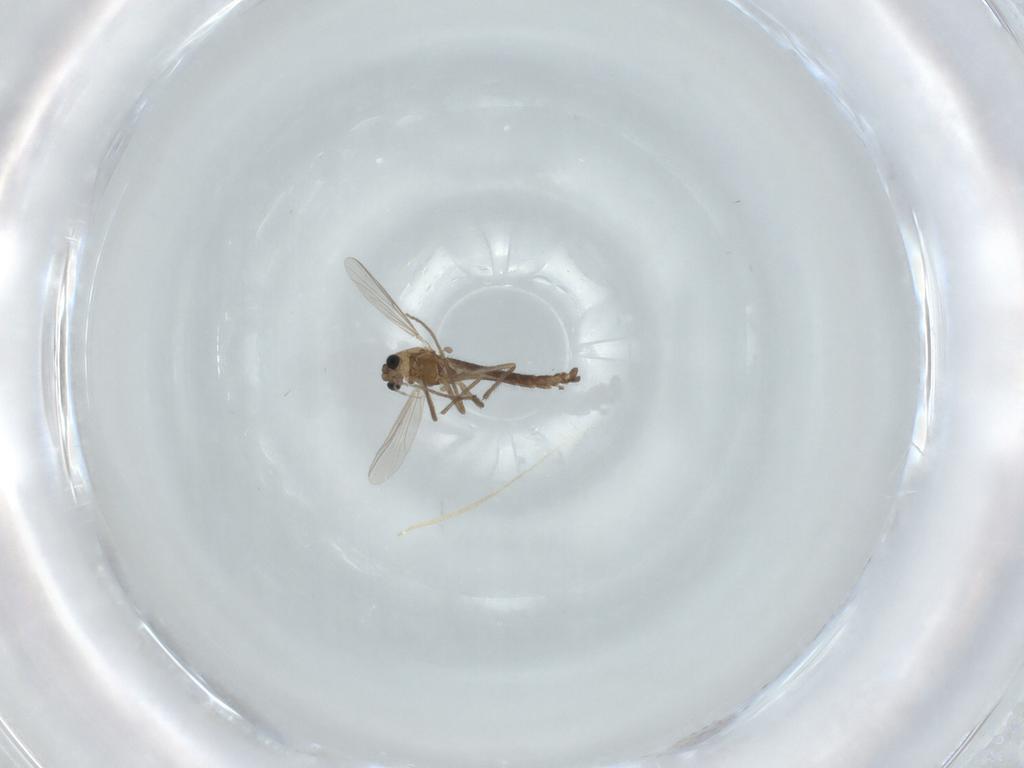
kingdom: Animalia
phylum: Arthropoda
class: Insecta
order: Diptera
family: Chironomidae
